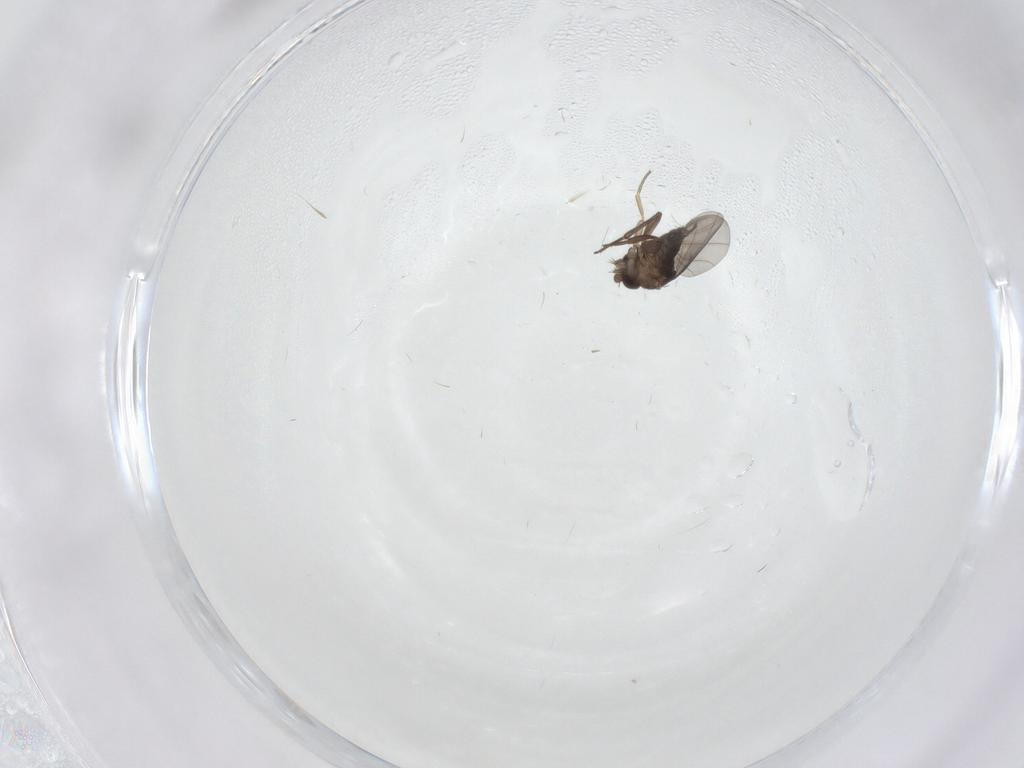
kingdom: Animalia
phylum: Arthropoda
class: Insecta
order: Diptera
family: Phoridae
